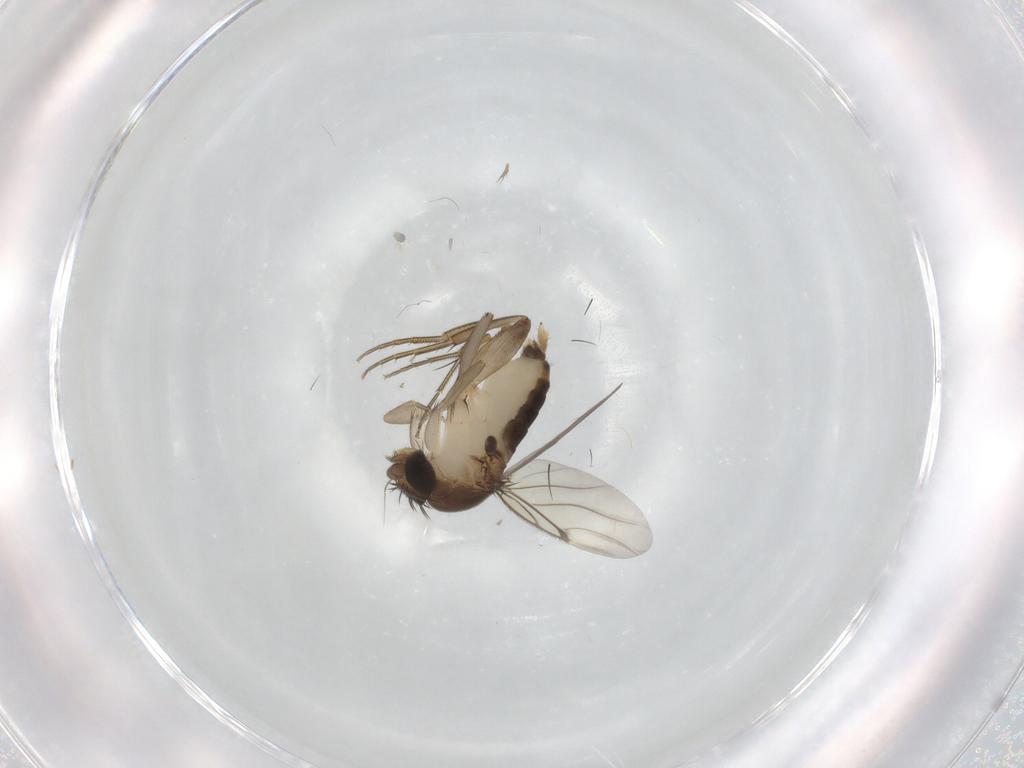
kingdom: Animalia
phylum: Arthropoda
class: Insecta
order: Diptera
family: Phoridae
